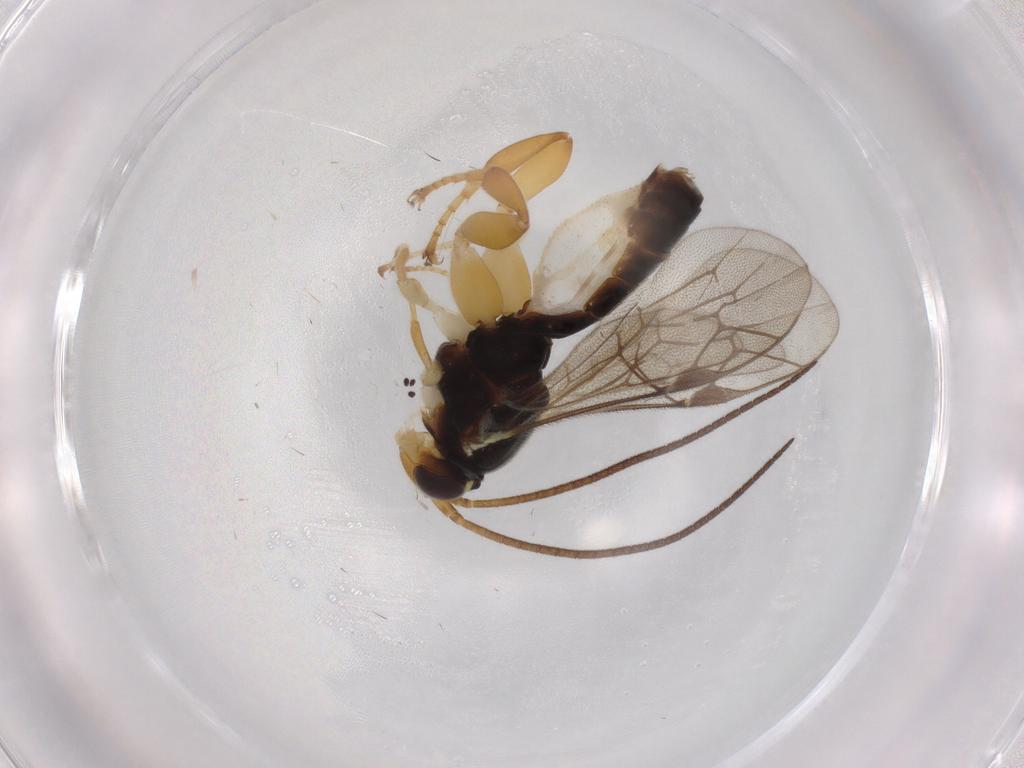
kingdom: Animalia
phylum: Arthropoda
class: Insecta
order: Hymenoptera
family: Ichneumonidae
